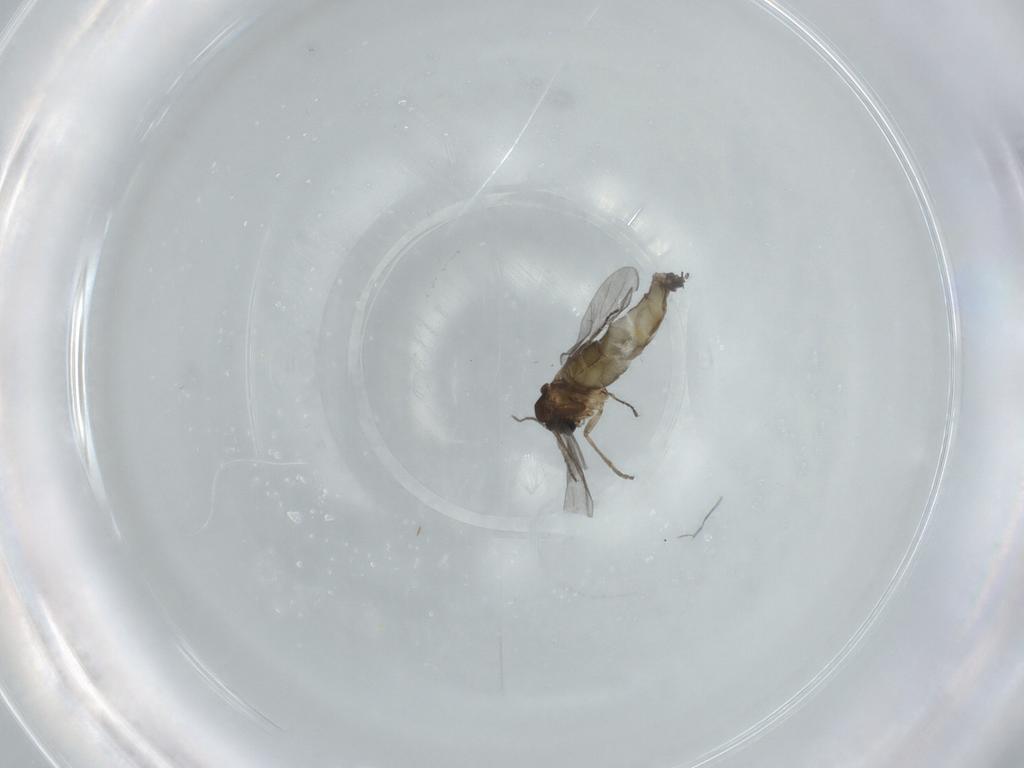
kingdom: Animalia
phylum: Arthropoda
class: Insecta
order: Diptera
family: Sciaridae
